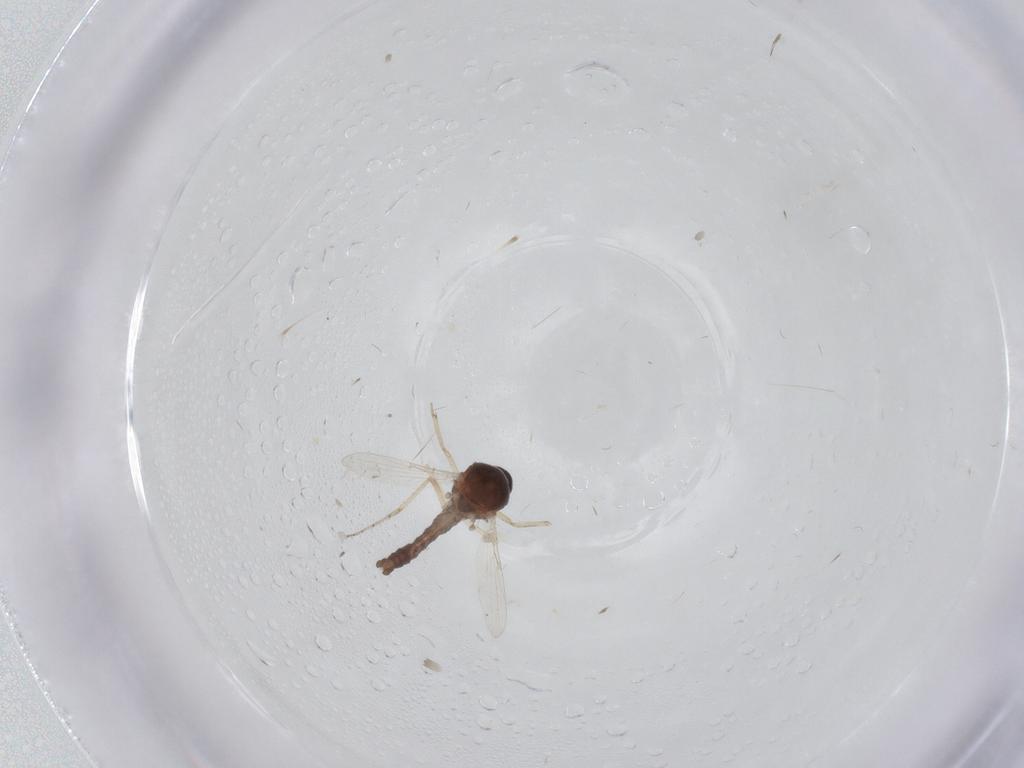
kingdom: Animalia
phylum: Arthropoda
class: Insecta
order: Diptera
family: Ceratopogonidae
